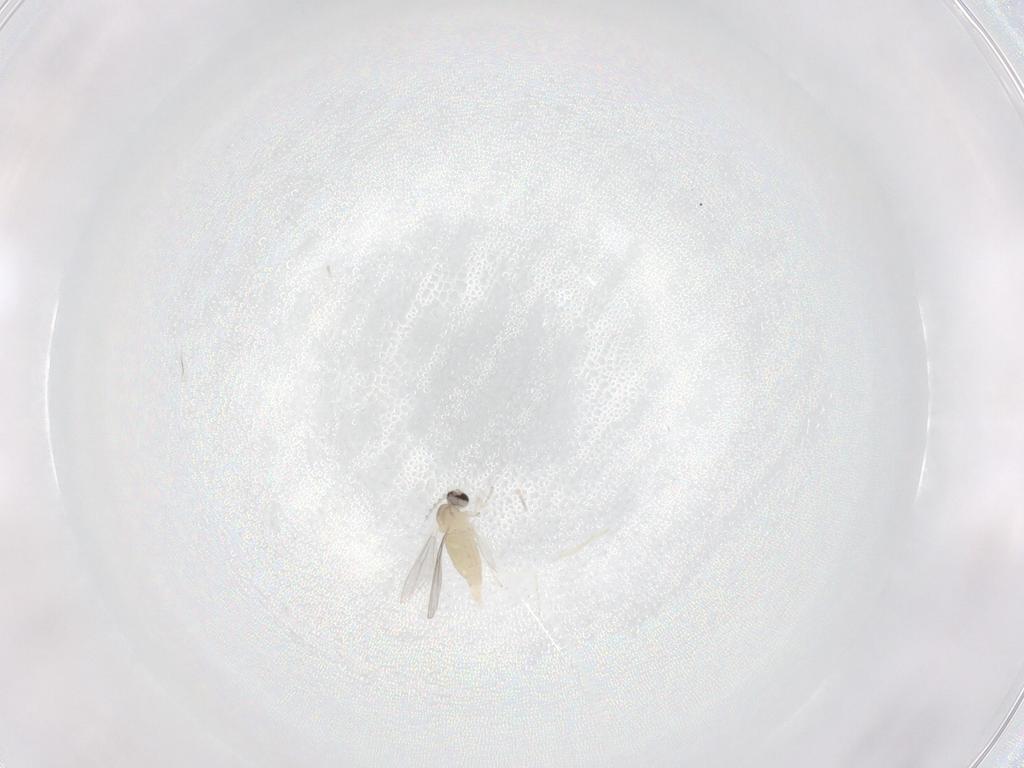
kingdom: Animalia
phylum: Arthropoda
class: Insecta
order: Diptera
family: Cecidomyiidae
